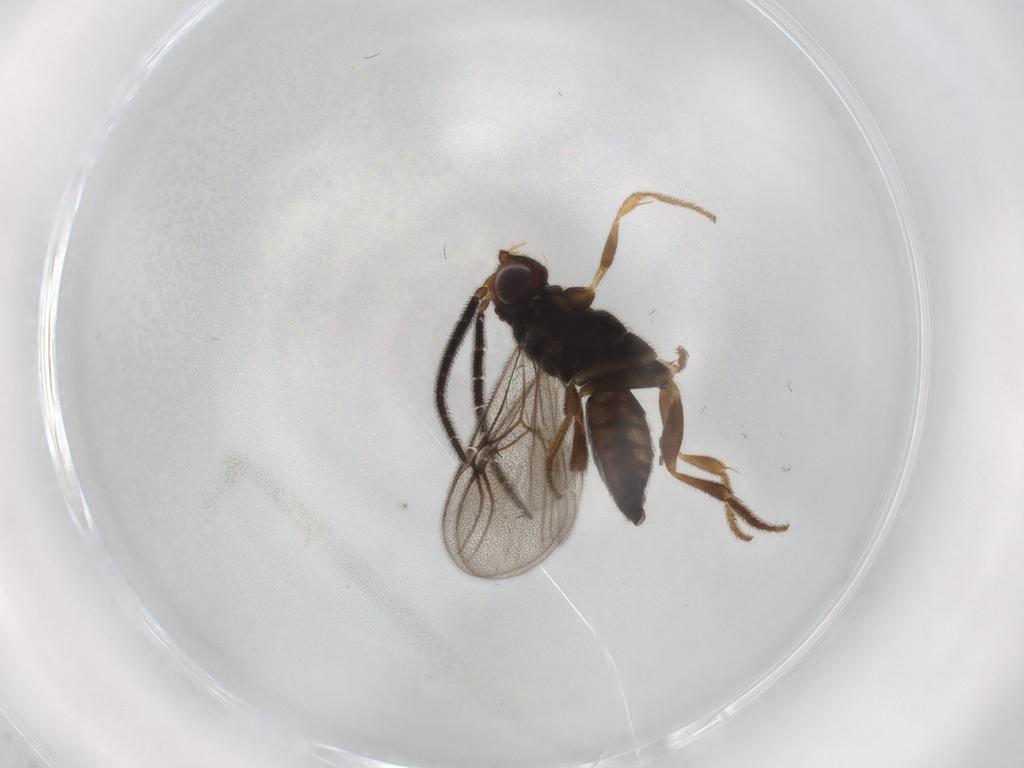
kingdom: Animalia
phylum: Arthropoda
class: Insecta
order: Hymenoptera
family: Dryinidae
